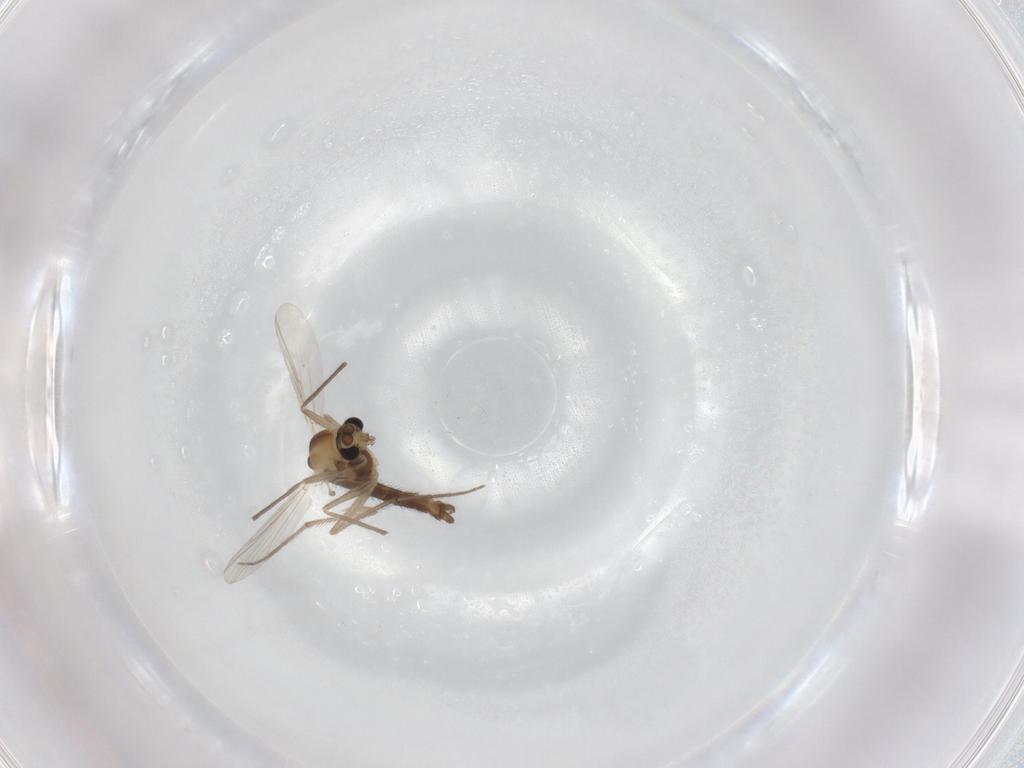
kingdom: Animalia
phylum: Arthropoda
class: Insecta
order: Diptera
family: Chironomidae
